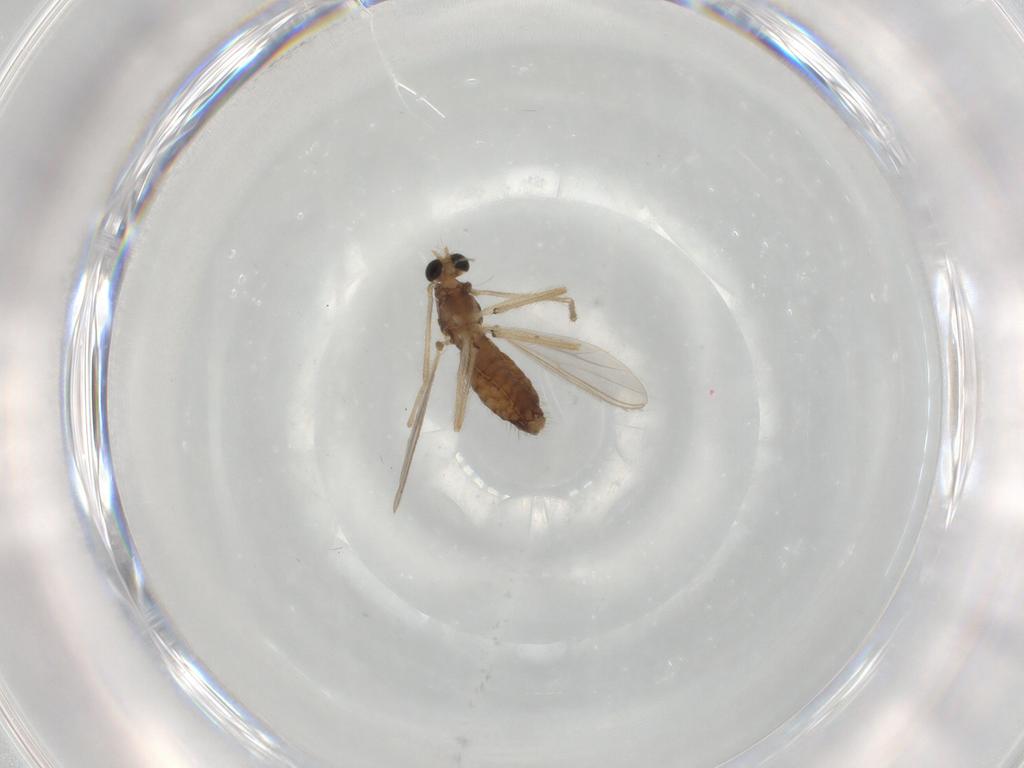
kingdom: Animalia
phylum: Arthropoda
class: Insecta
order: Diptera
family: Chironomidae
